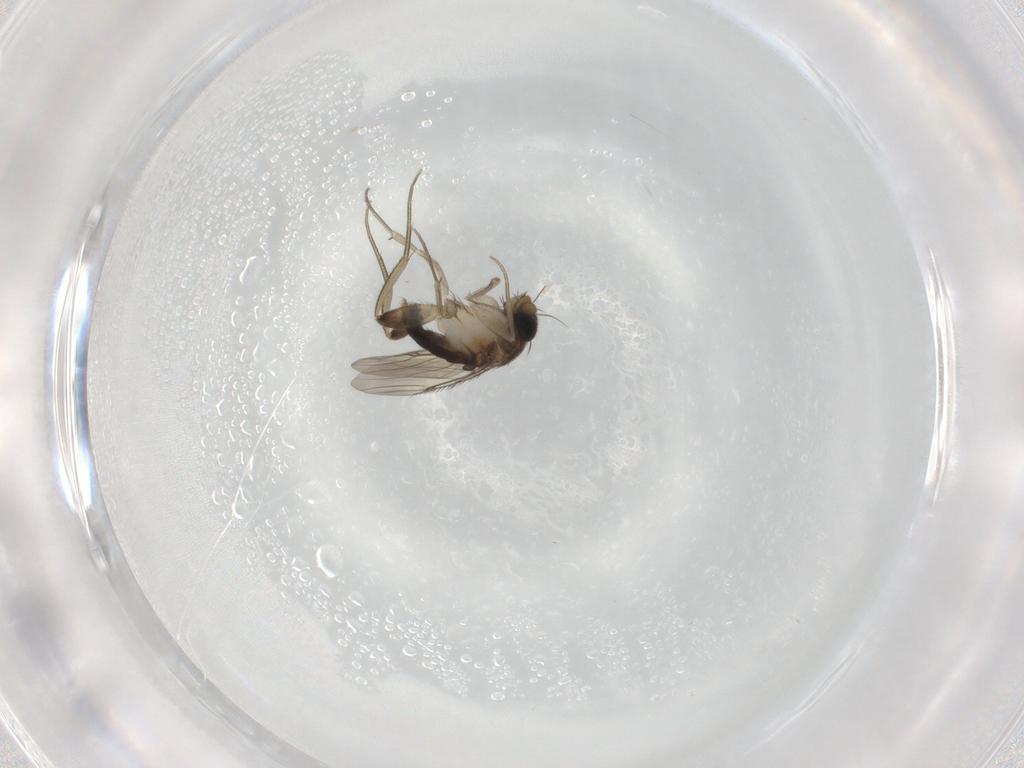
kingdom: Animalia
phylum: Arthropoda
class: Insecta
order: Diptera
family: Phoridae
